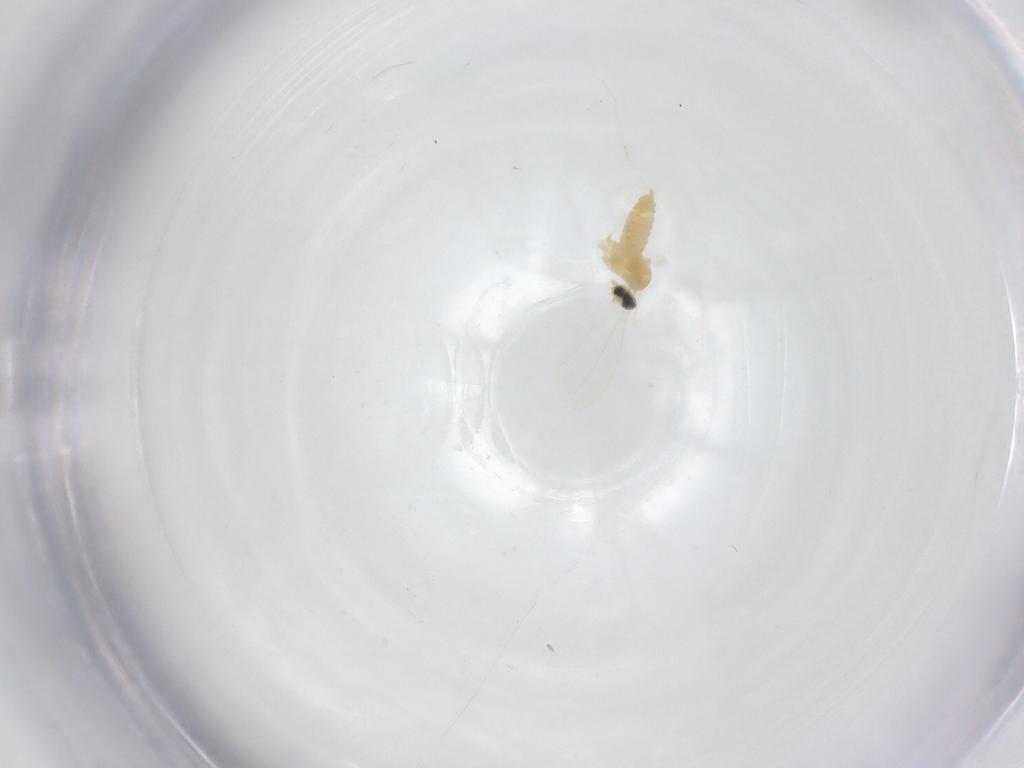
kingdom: Animalia
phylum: Arthropoda
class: Insecta
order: Diptera
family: Cecidomyiidae
